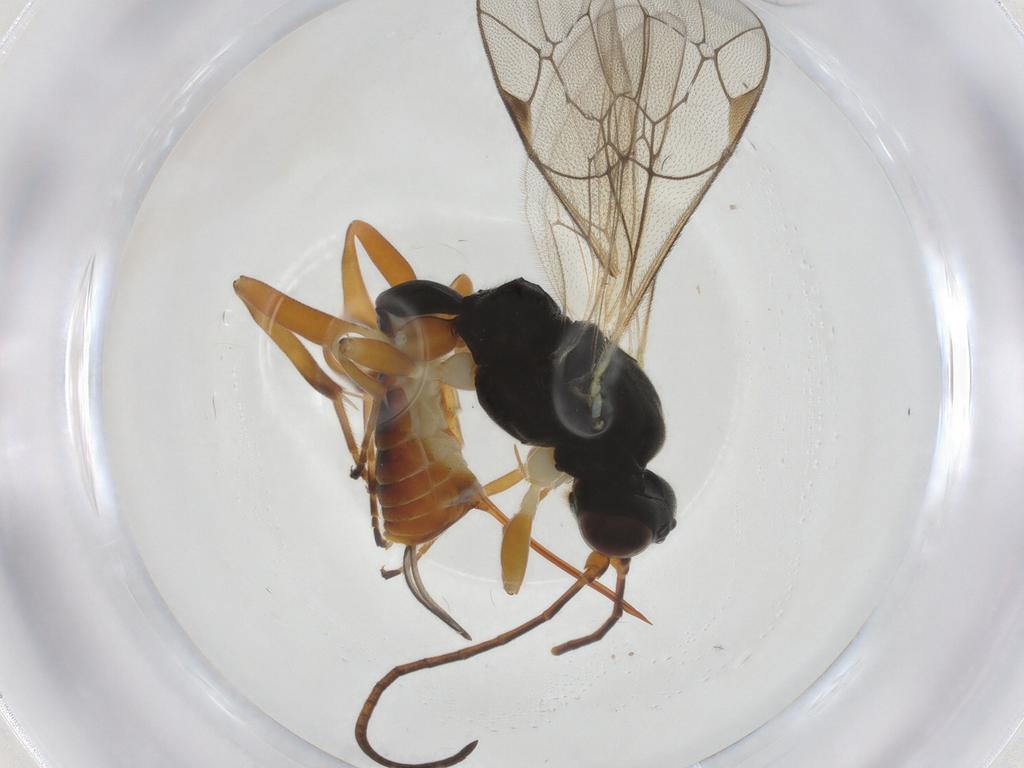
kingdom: Animalia
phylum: Arthropoda
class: Insecta
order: Hymenoptera
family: Ichneumonidae
